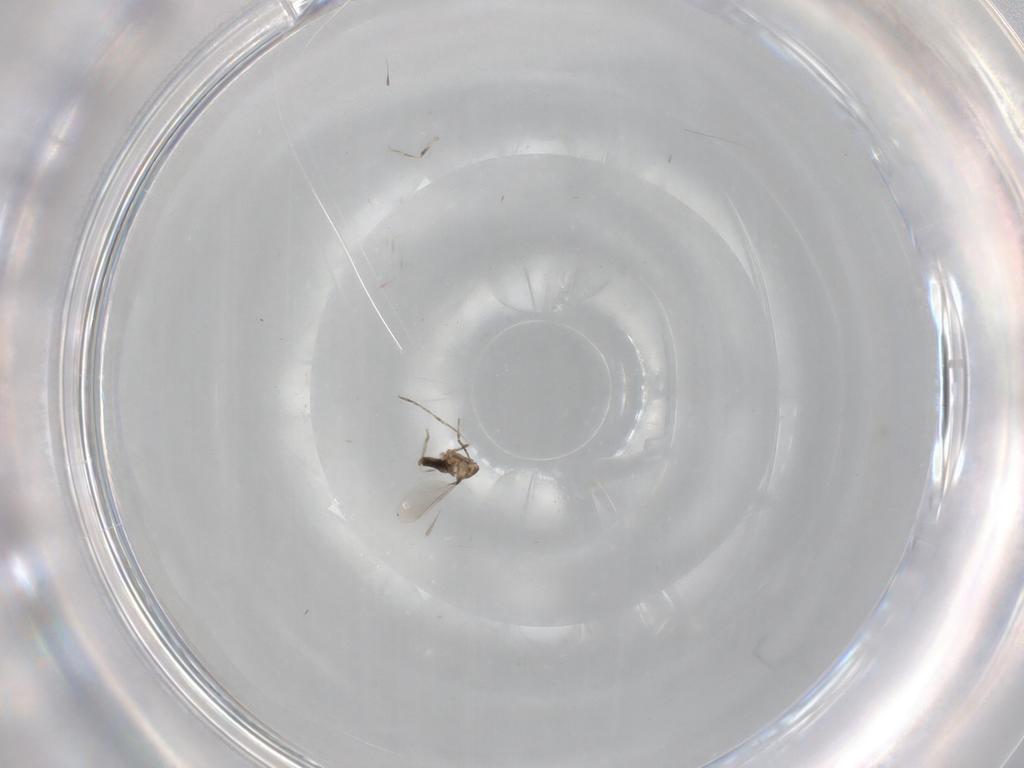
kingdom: Animalia
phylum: Arthropoda
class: Insecta
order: Diptera
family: Limoniidae
